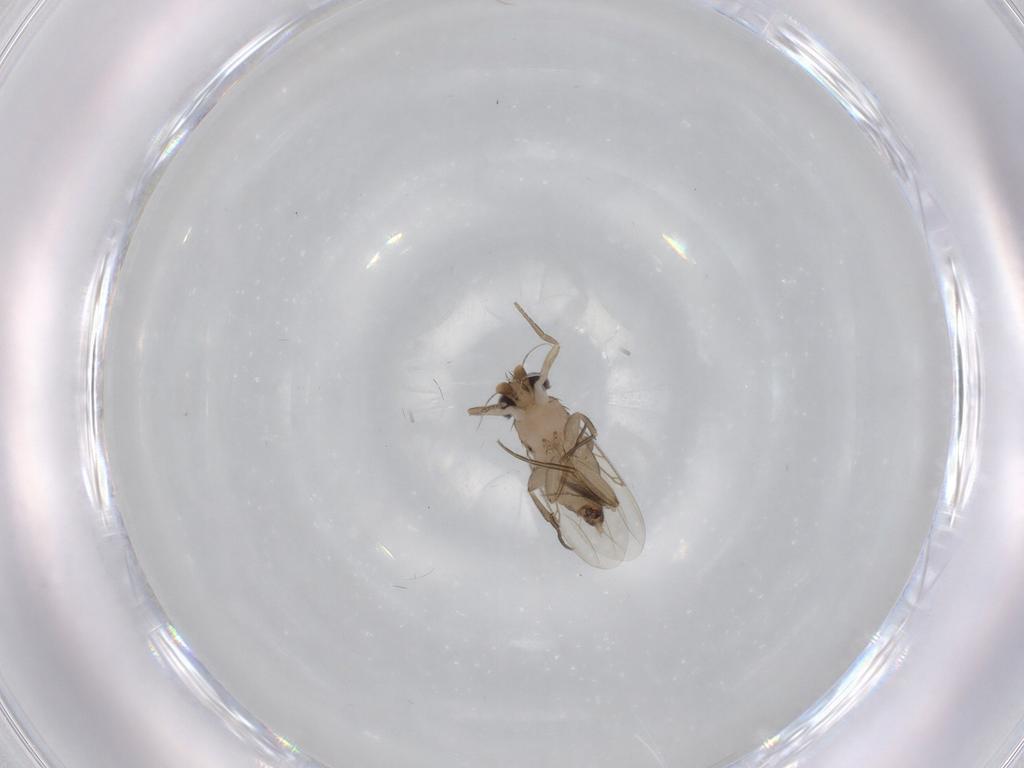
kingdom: Animalia
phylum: Arthropoda
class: Insecta
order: Diptera
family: Phoridae
